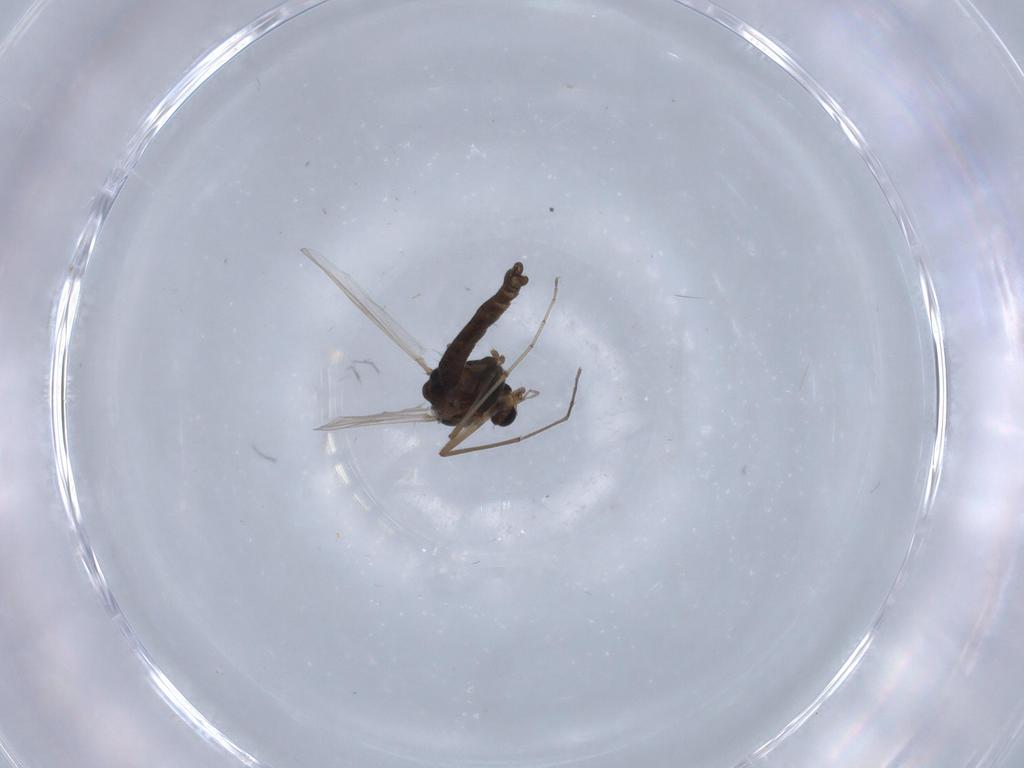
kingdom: Animalia
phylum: Arthropoda
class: Insecta
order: Diptera
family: Chironomidae
